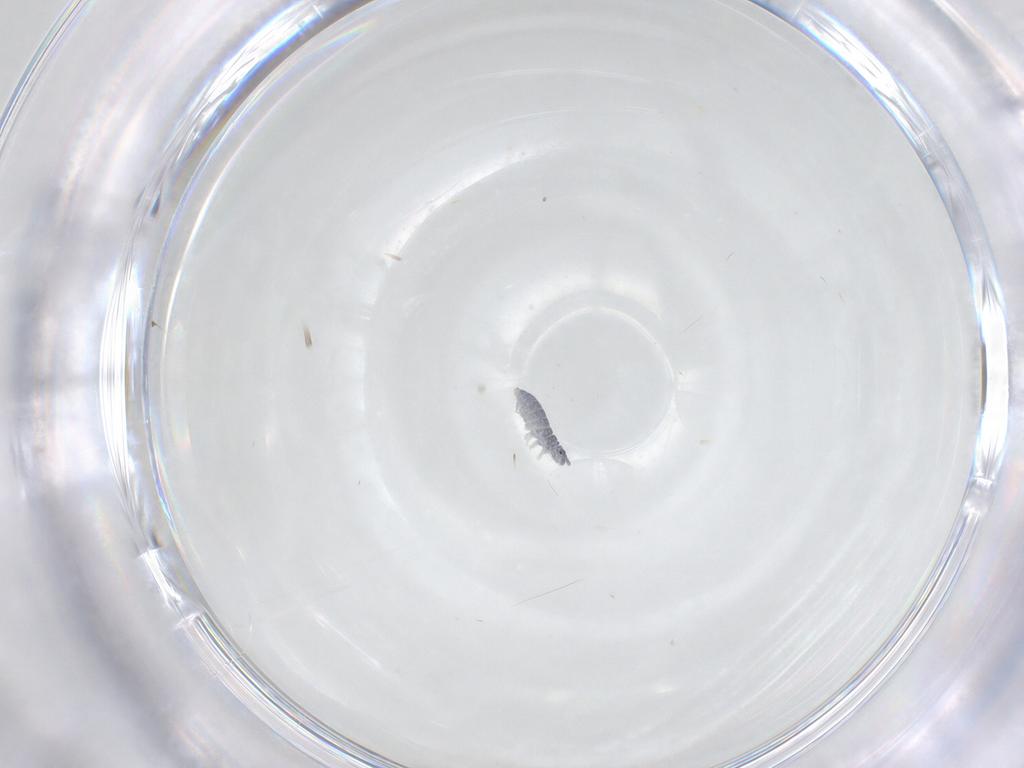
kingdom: Animalia
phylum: Arthropoda
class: Collembola
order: Poduromorpha
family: Hypogastruridae
